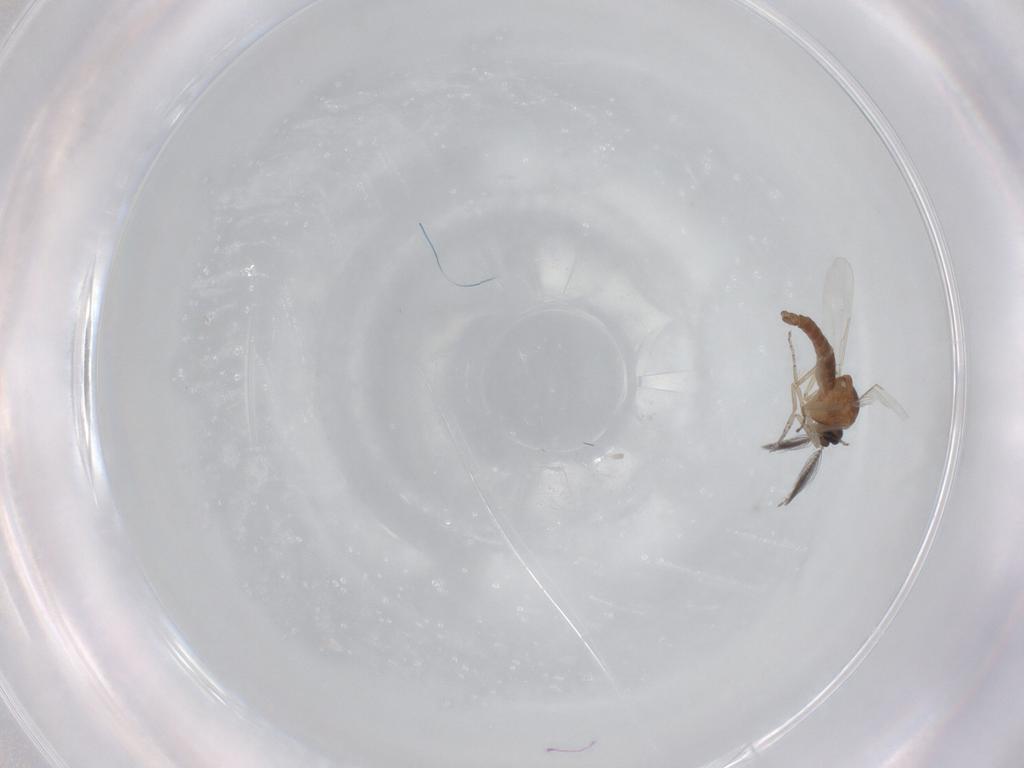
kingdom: Animalia
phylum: Arthropoda
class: Insecta
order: Diptera
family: Ceratopogonidae
